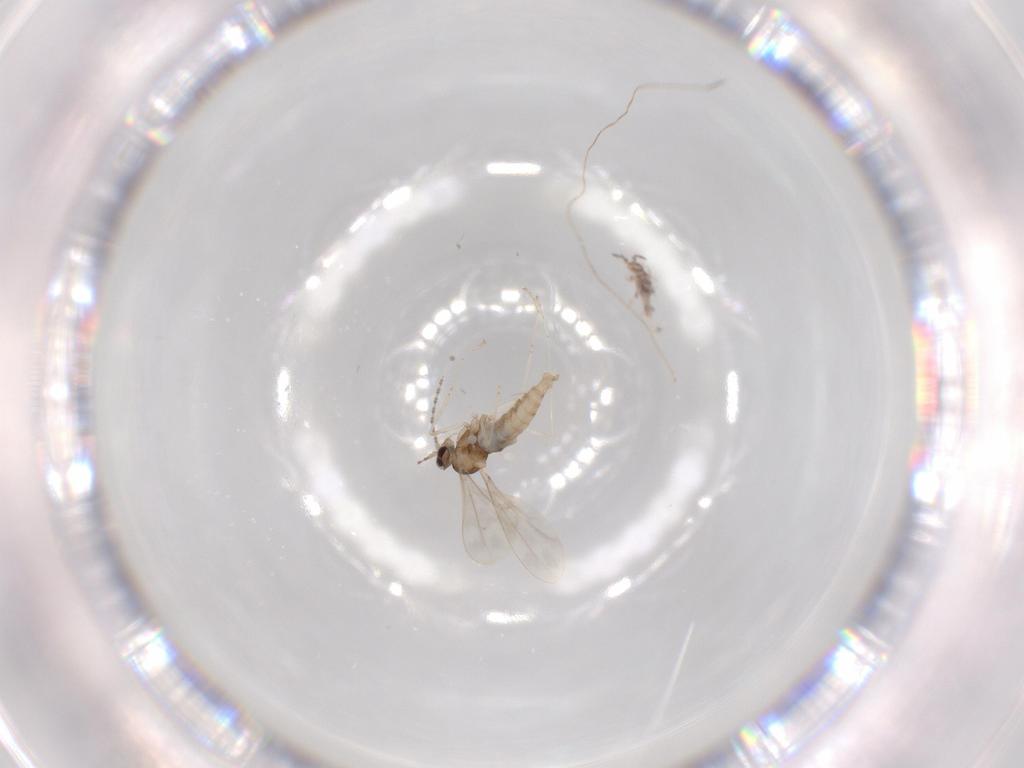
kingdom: Animalia
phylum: Arthropoda
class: Insecta
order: Diptera
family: Cecidomyiidae
